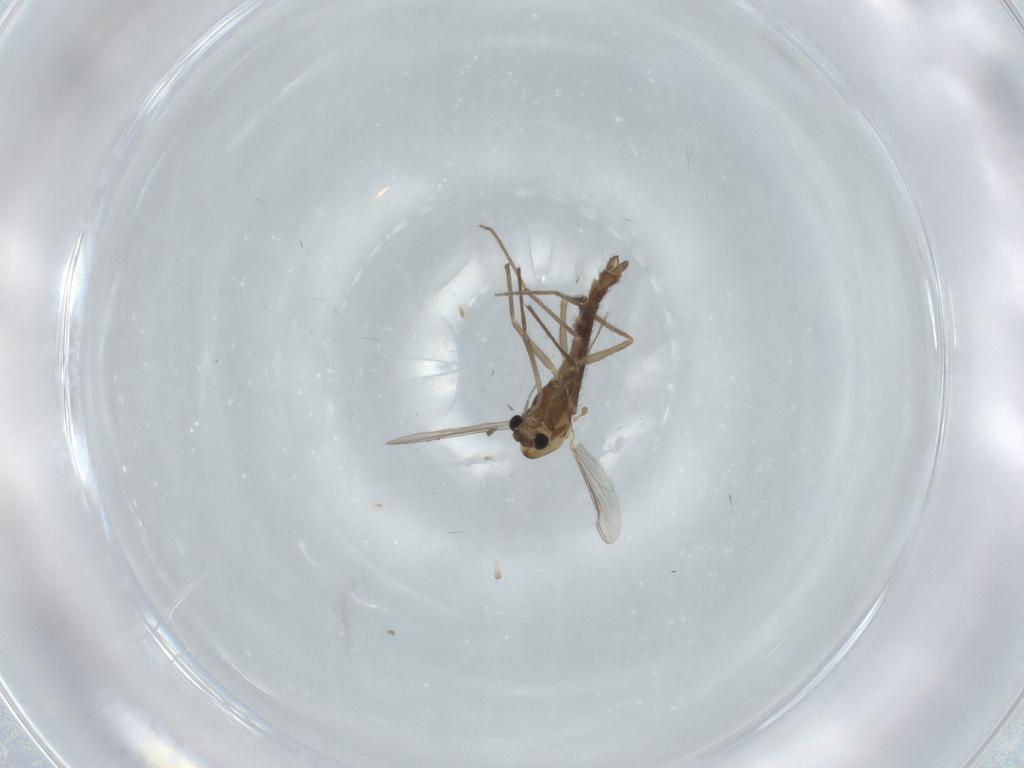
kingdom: Animalia
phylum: Arthropoda
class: Insecta
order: Diptera
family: Chironomidae
